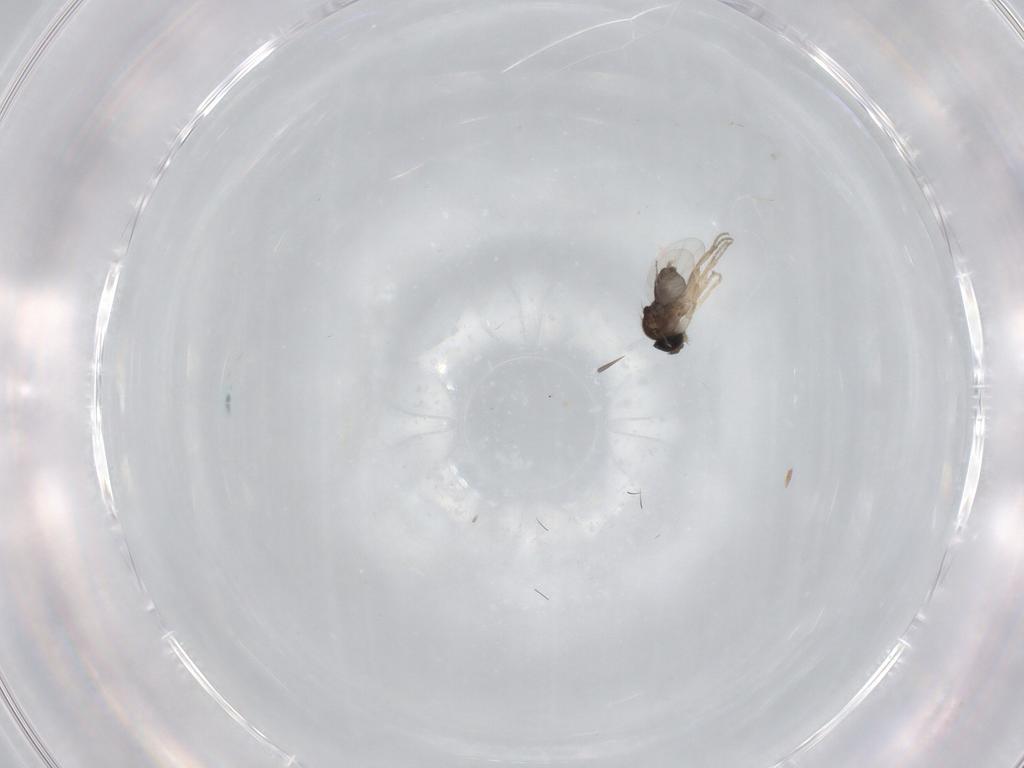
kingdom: Animalia
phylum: Arthropoda
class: Insecta
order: Diptera
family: Phoridae
